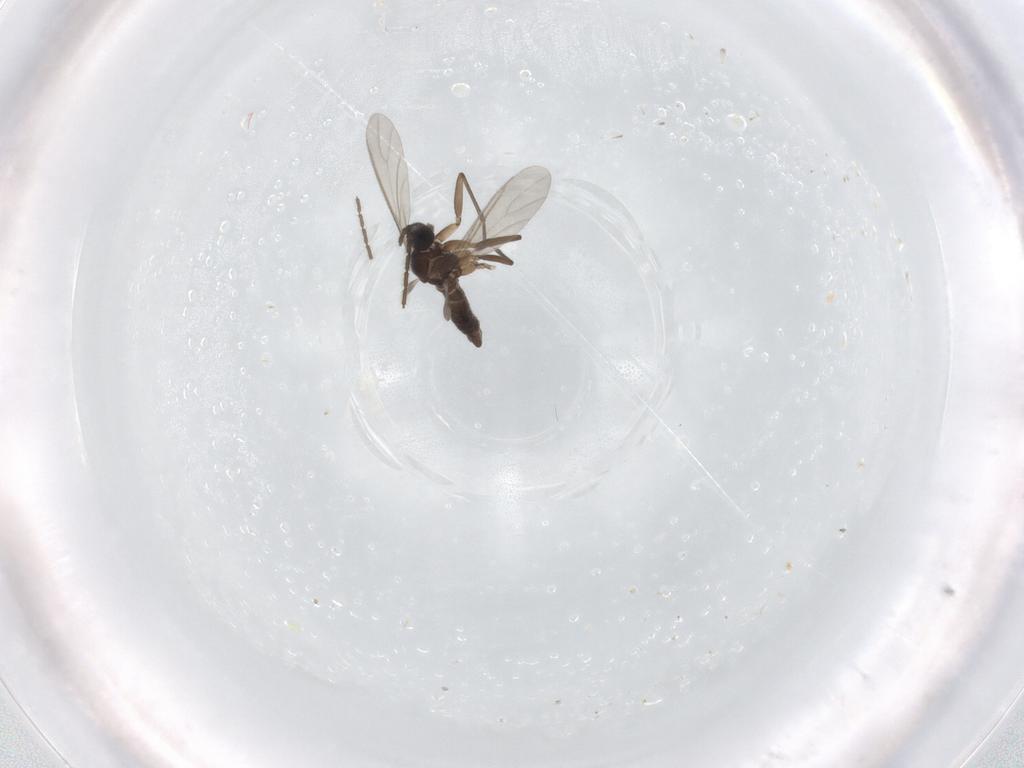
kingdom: Animalia
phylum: Arthropoda
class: Insecta
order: Diptera
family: Sciaridae
